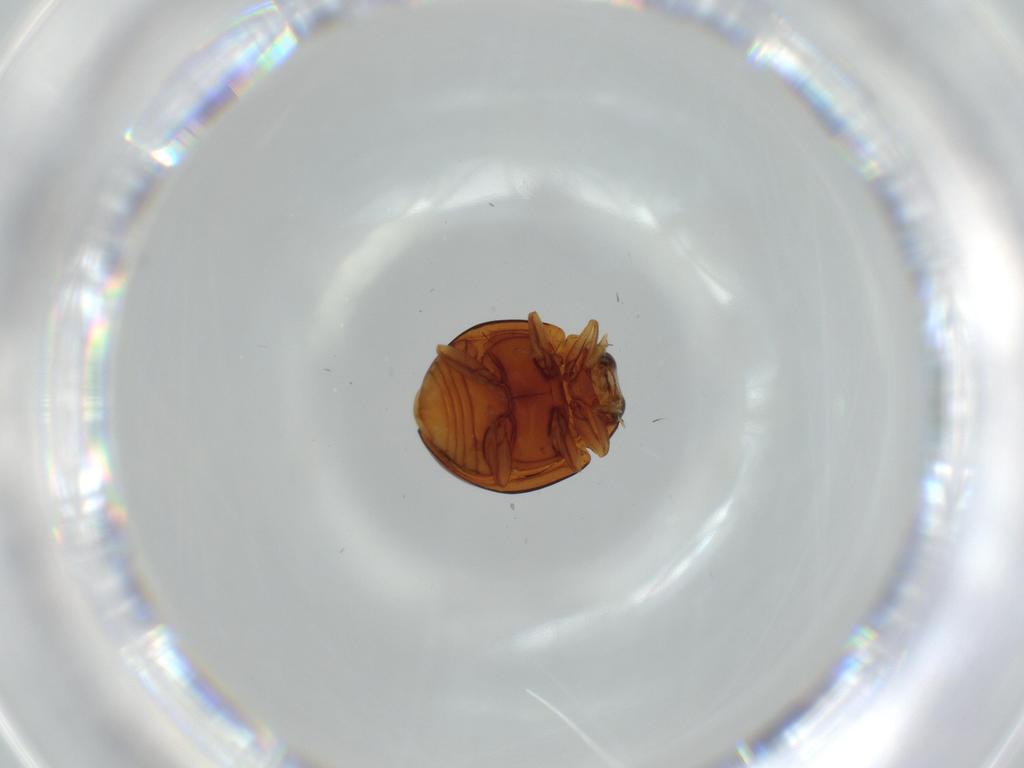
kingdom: Animalia
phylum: Arthropoda
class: Insecta
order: Coleoptera
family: Coccinellidae
